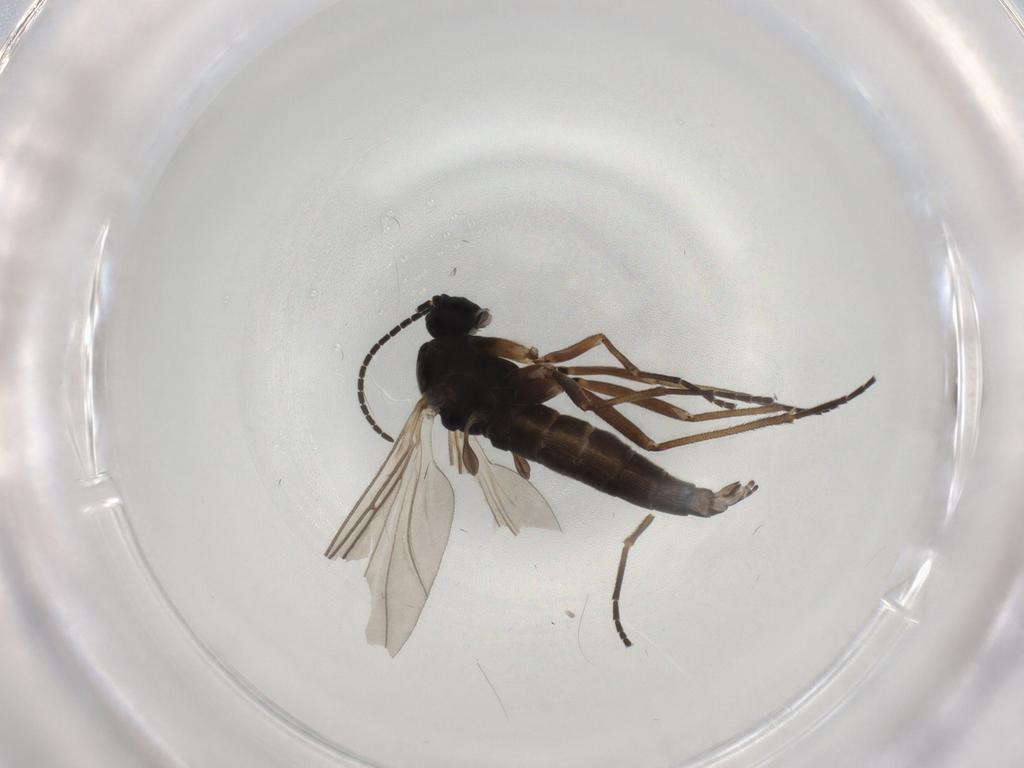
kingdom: Animalia
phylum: Arthropoda
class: Insecta
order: Diptera
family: Sciaridae
